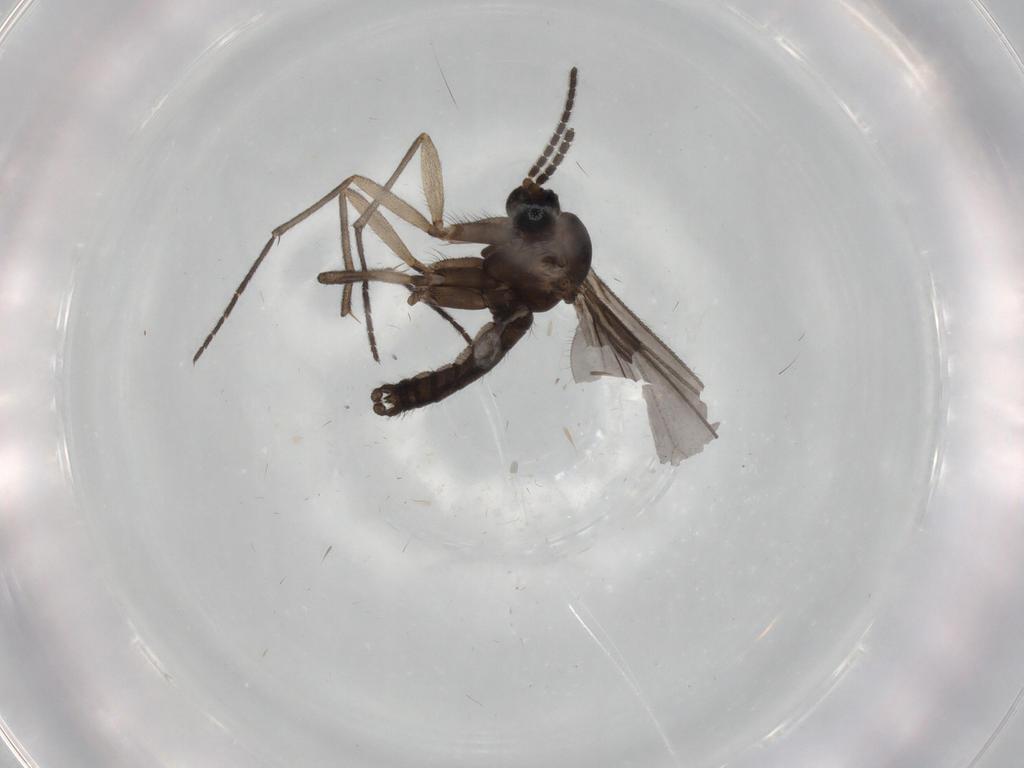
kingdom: Animalia
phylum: Arthropoda
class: Insecta
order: Diptera
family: Sciaridae
